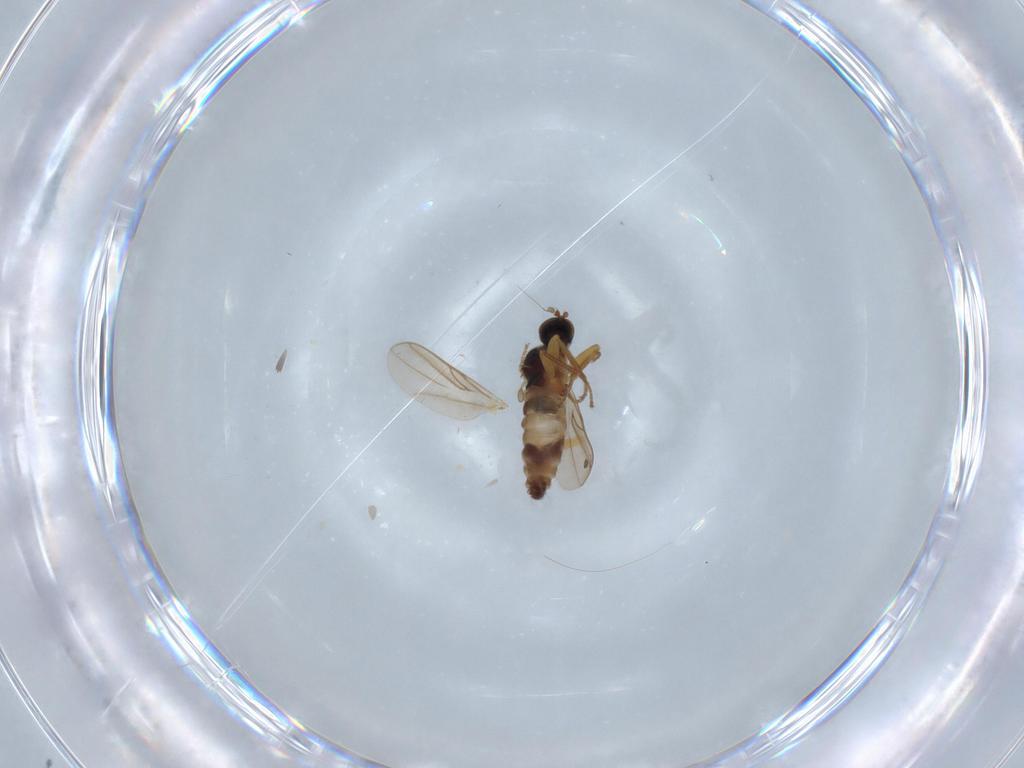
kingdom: Animalia
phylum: Arthropoda
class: Insecta
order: Diptera
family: Hybotidae
